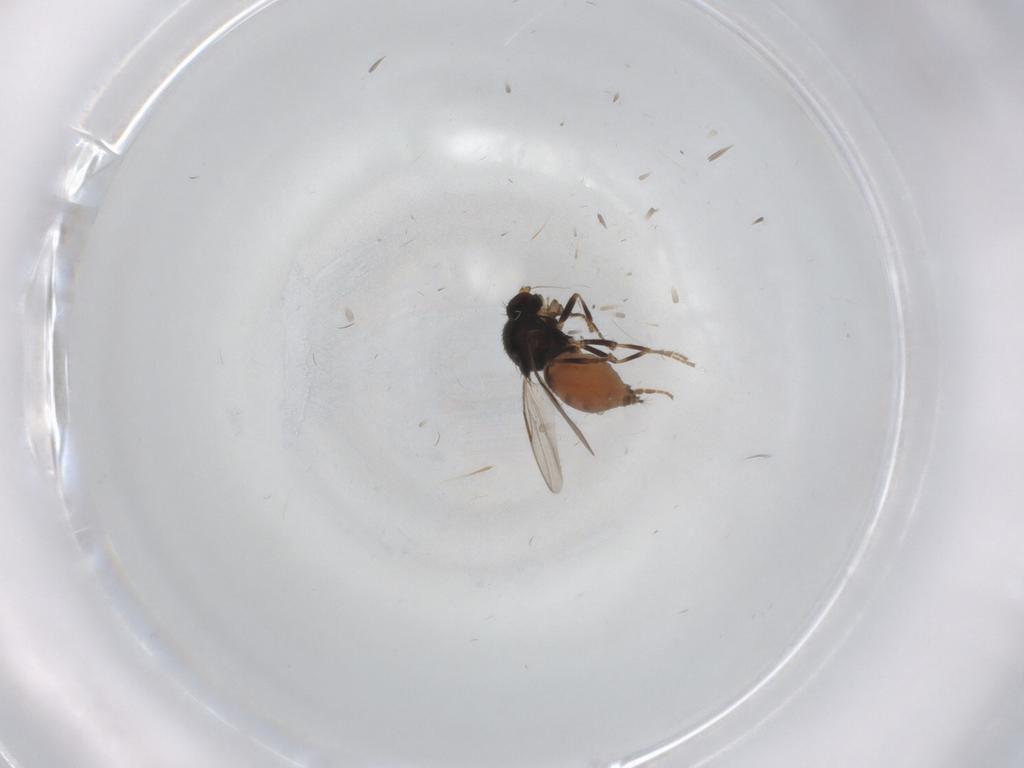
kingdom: Animalia
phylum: Arthropoda
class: Insecta
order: Diptera
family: Sphaeroceridae
